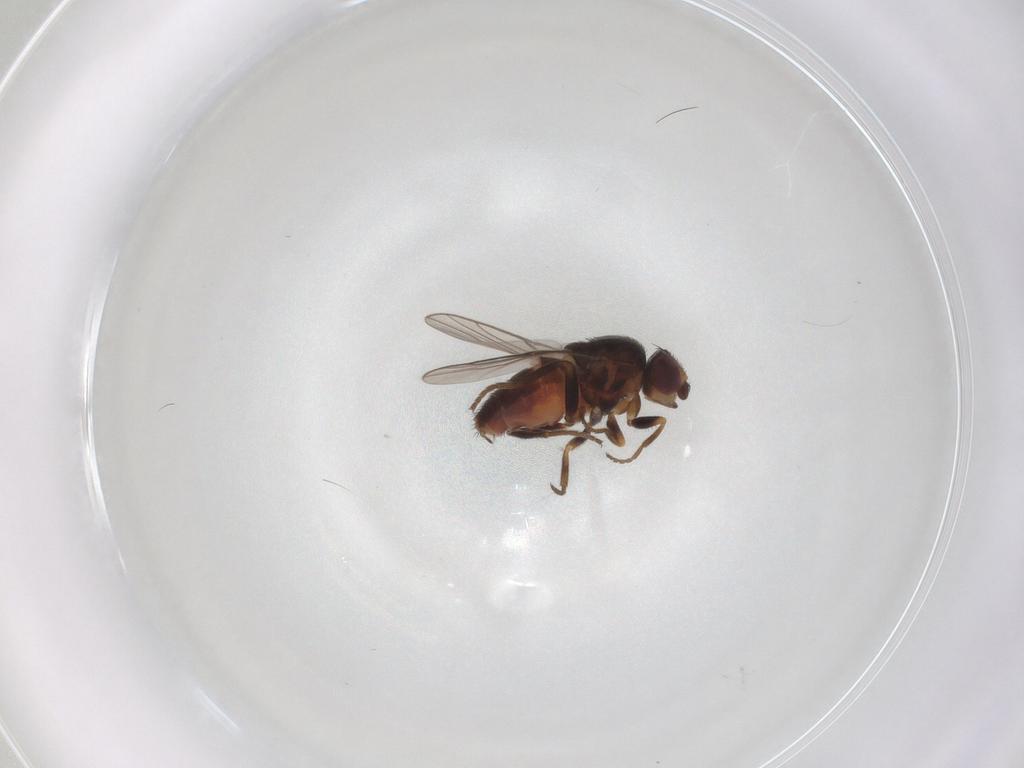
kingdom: Animalia
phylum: Arthropoda
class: Insecta
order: Diptera
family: Chloropidae
